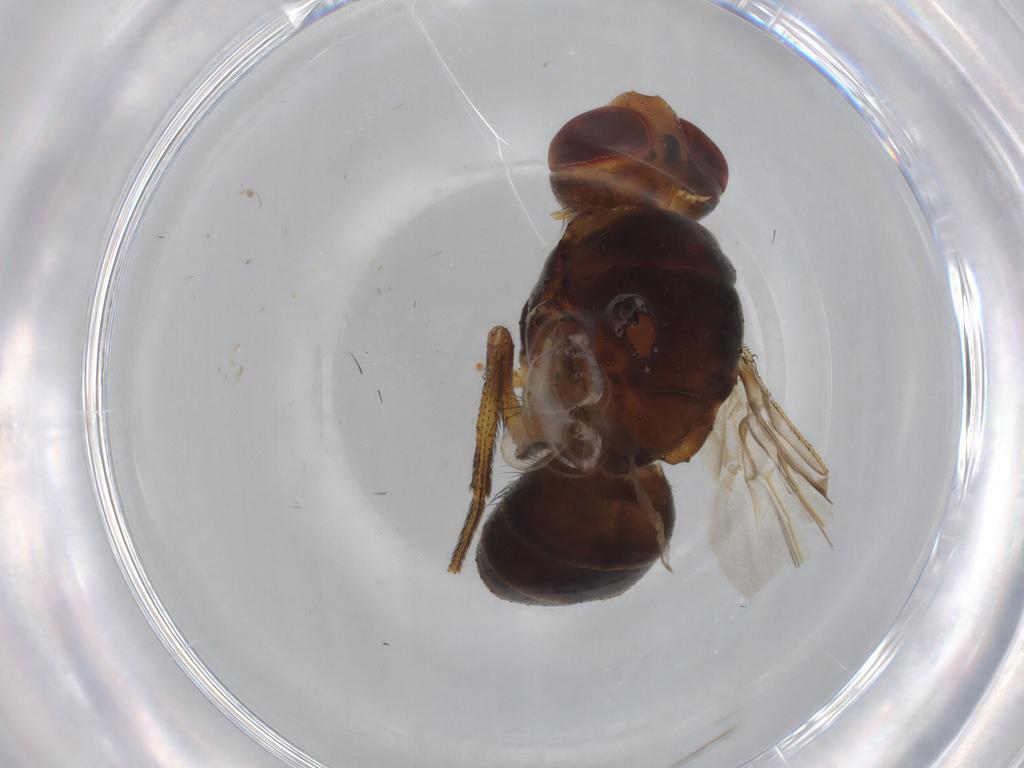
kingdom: Animalia
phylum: Arthropoda
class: Insecta
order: Diptera
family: Tachinidae
